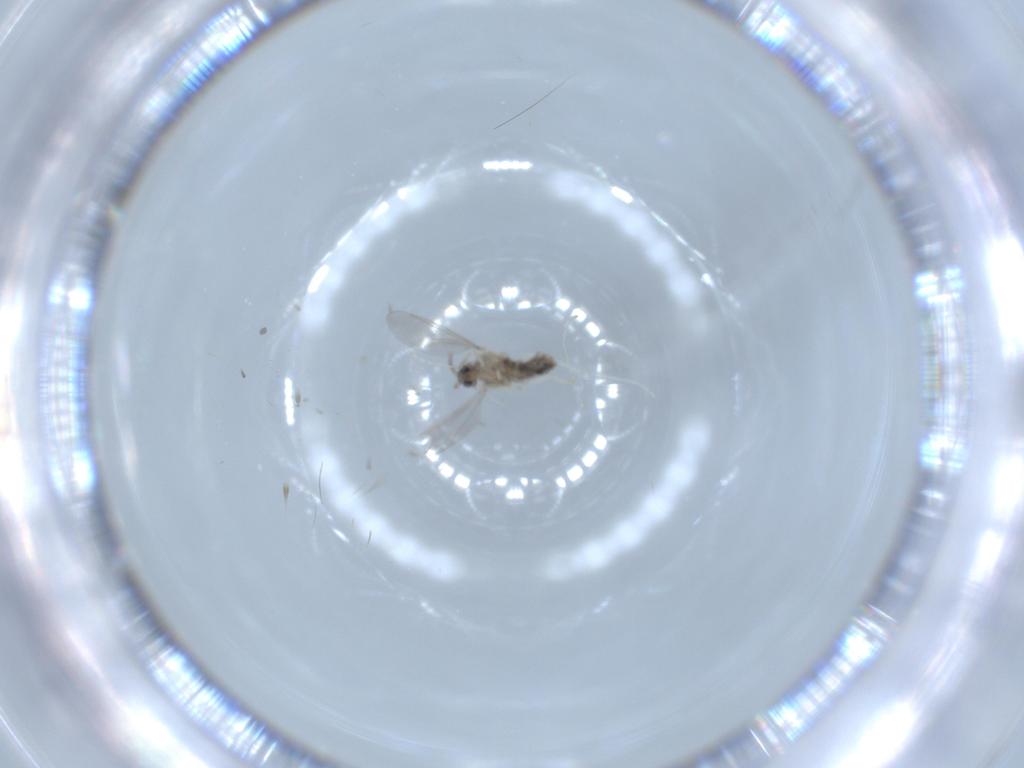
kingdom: Animalia
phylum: Arthropoda
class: Insecta
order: Diptera
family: Cecidomyiidae
